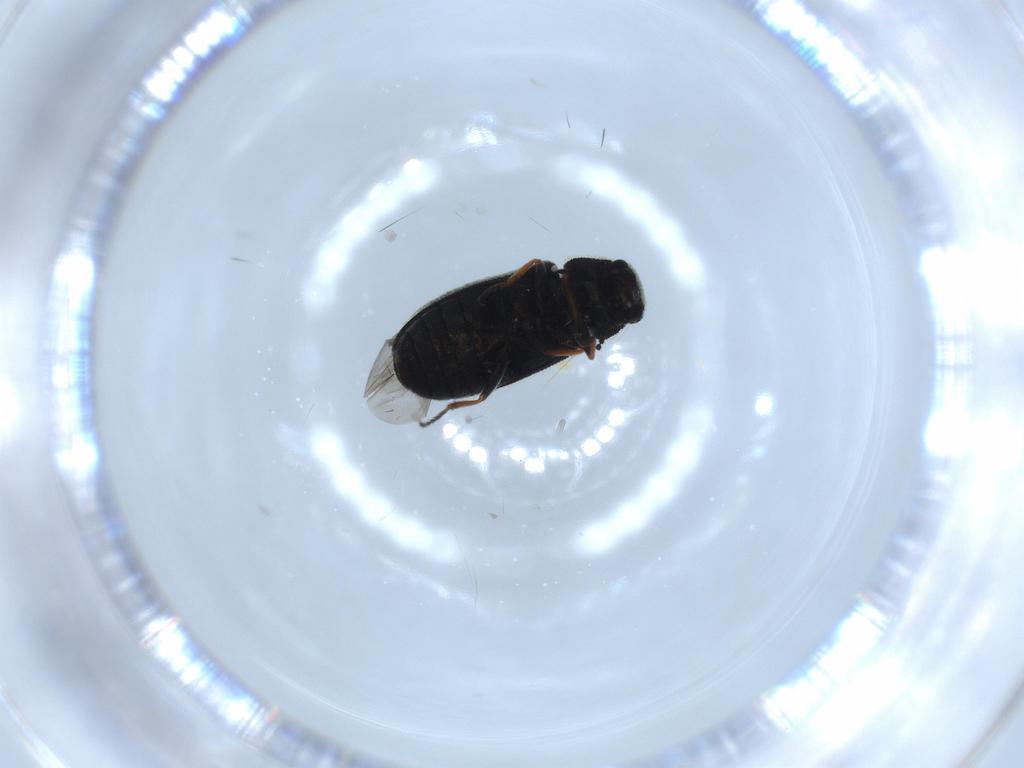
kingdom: Animalia
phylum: Arthropoda
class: Insecta
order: Coleoptera
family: Melyridae
